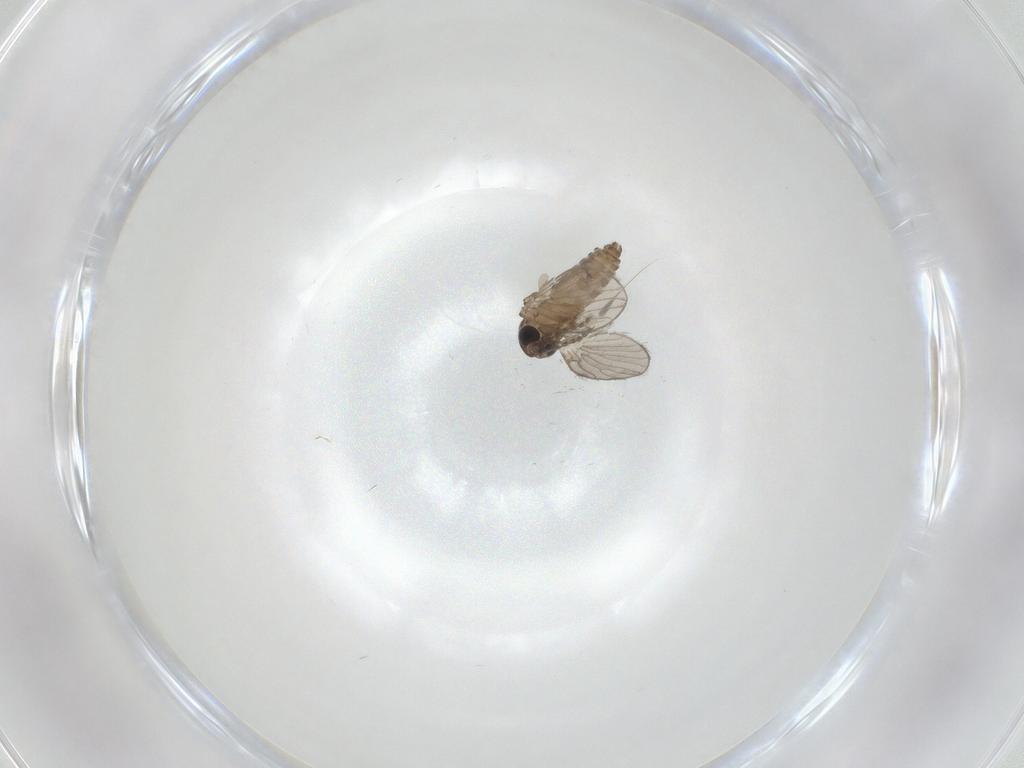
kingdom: Animalia
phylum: Arthropoda
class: Insecta
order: Diptera
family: Psychodidae
